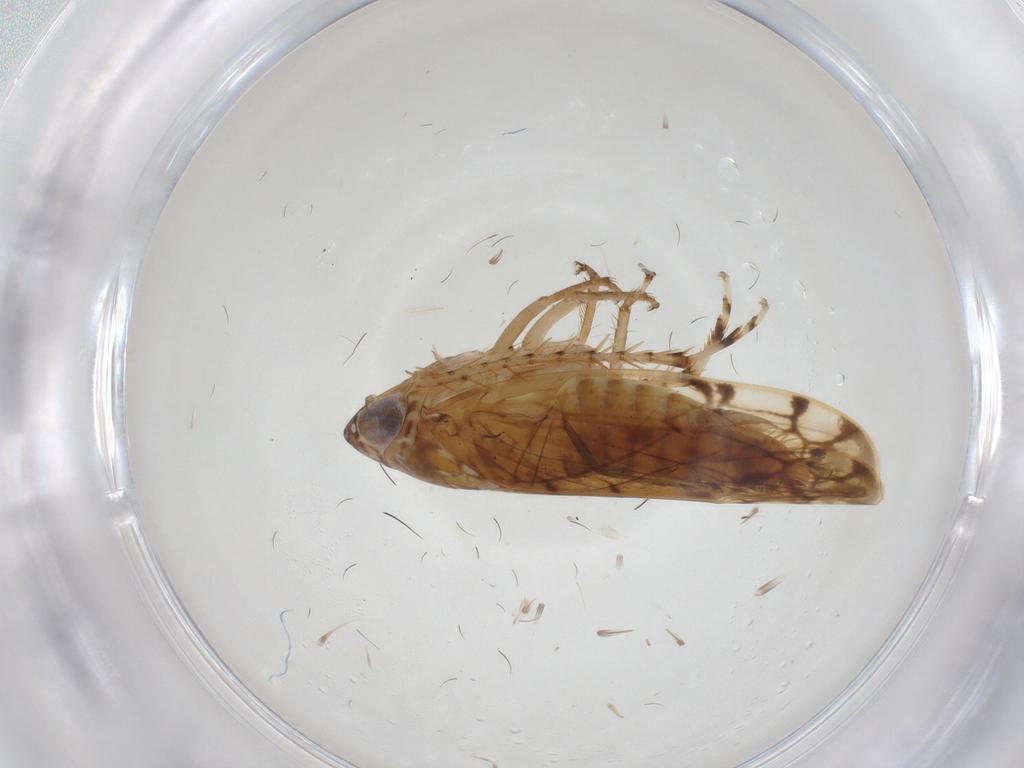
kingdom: Animalia
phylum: Arthropoda
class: Insecta
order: Hemiptera
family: Cicadellidae
